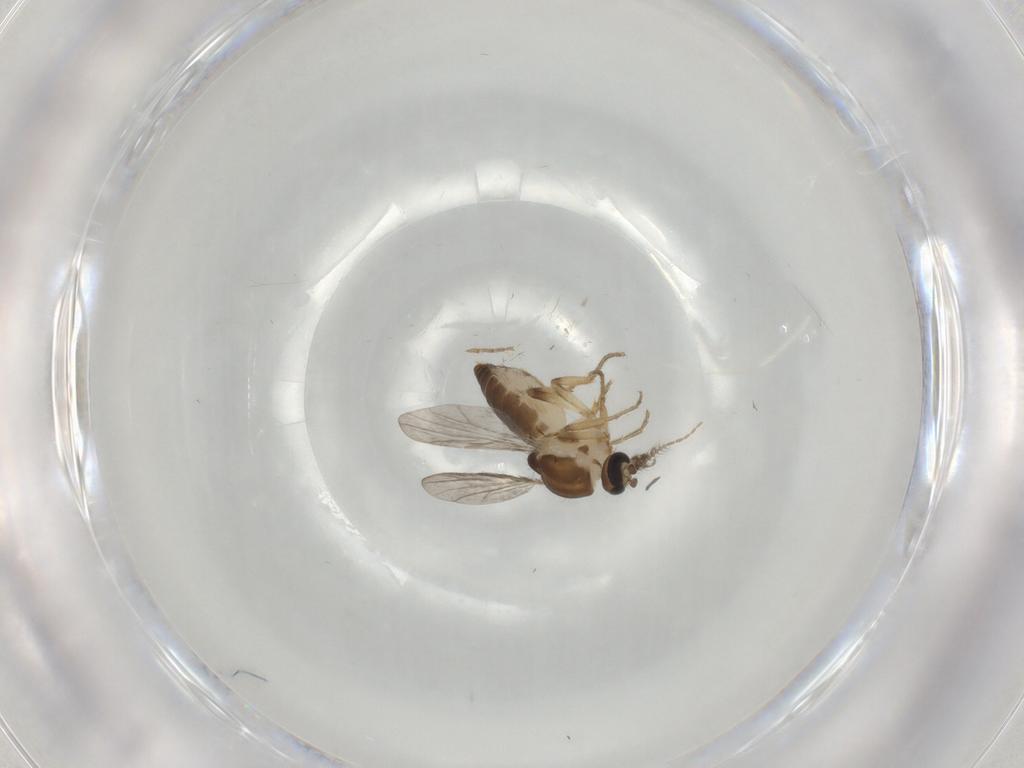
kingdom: Animalia
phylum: Arthropoda
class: Insecta
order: Diptera
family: Ceratopogonidae
